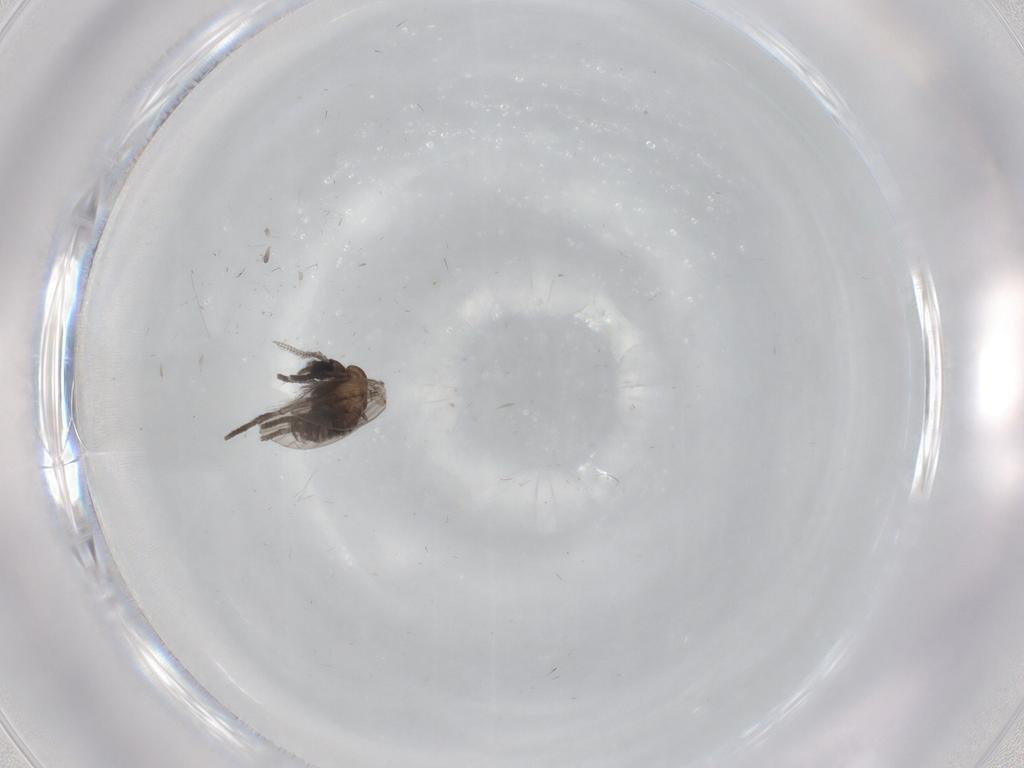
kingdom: Animalia
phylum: Arthropoda
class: Insecta
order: Diptera
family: Psychodidae
